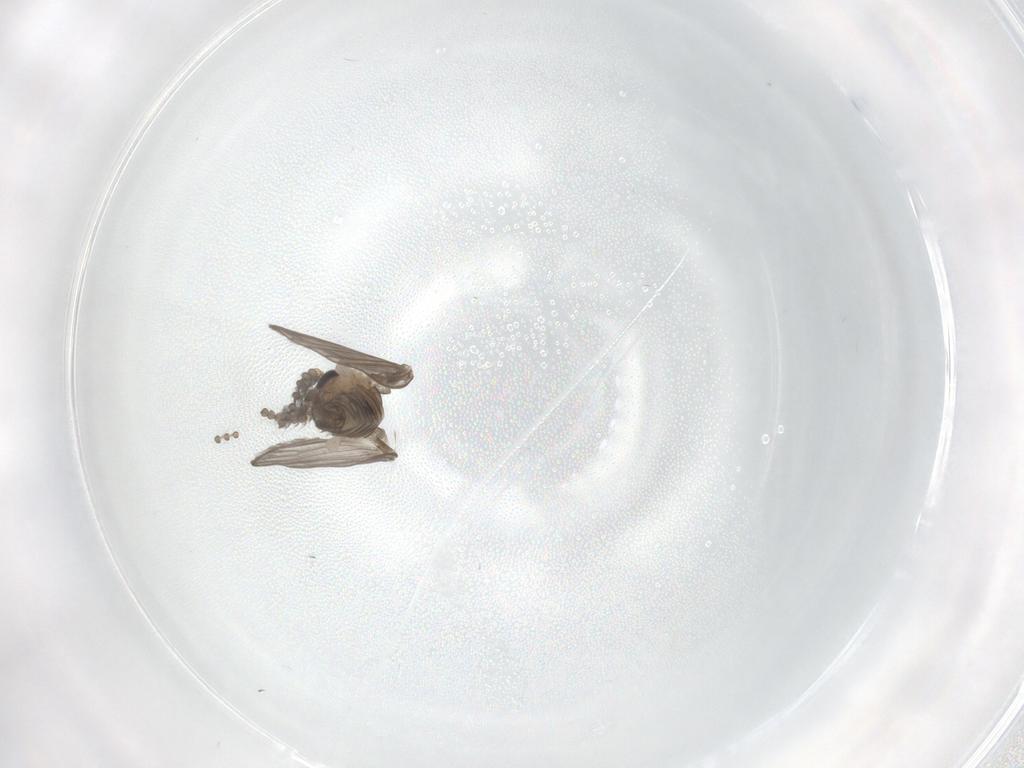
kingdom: Animalia
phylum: Arthropoda
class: Insecta
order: Diptera
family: Psychodidae
